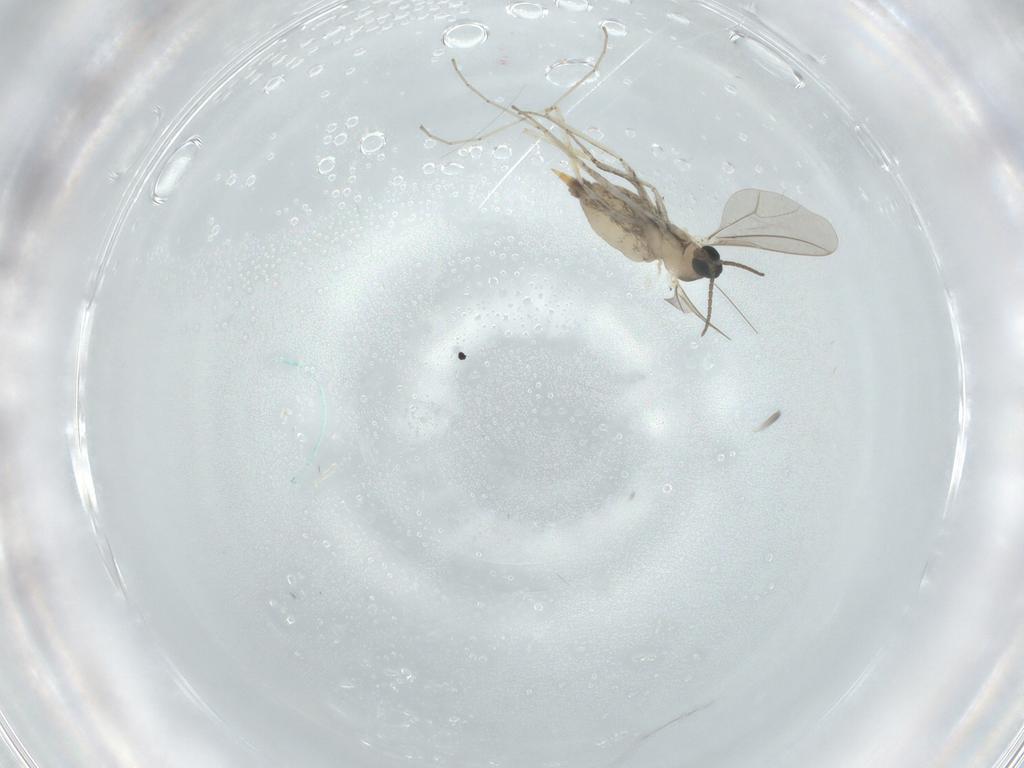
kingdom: Animalia
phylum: Arthropoda
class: Insecta
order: Diptera
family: Cecidomyiidae
